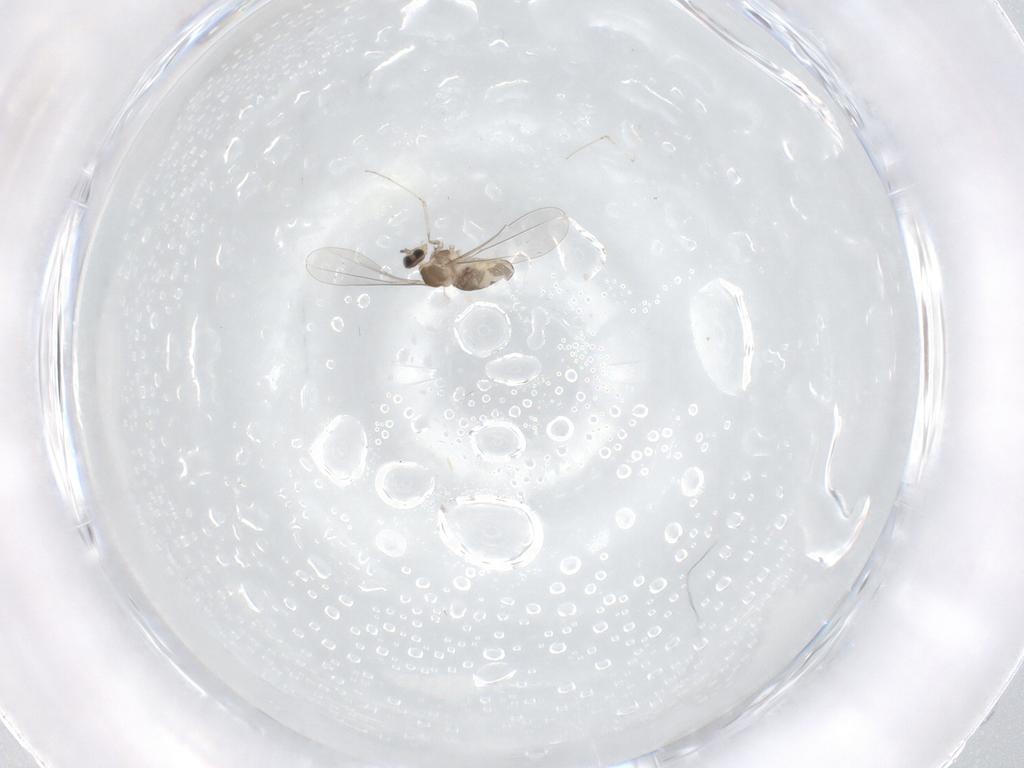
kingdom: Animalia
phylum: Arthropoda
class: Insecta
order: Diptera
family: Cecidomyiidae
